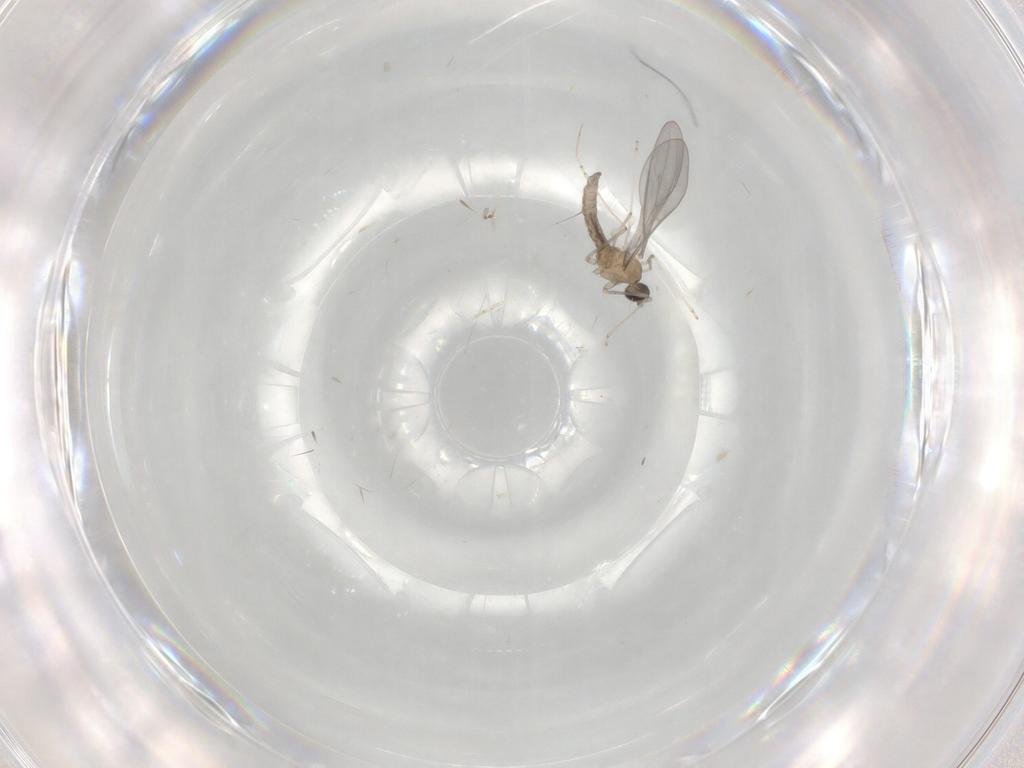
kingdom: Animalia
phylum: Arthropoda
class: Insecta
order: Diptera
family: Cecidomyiidae
